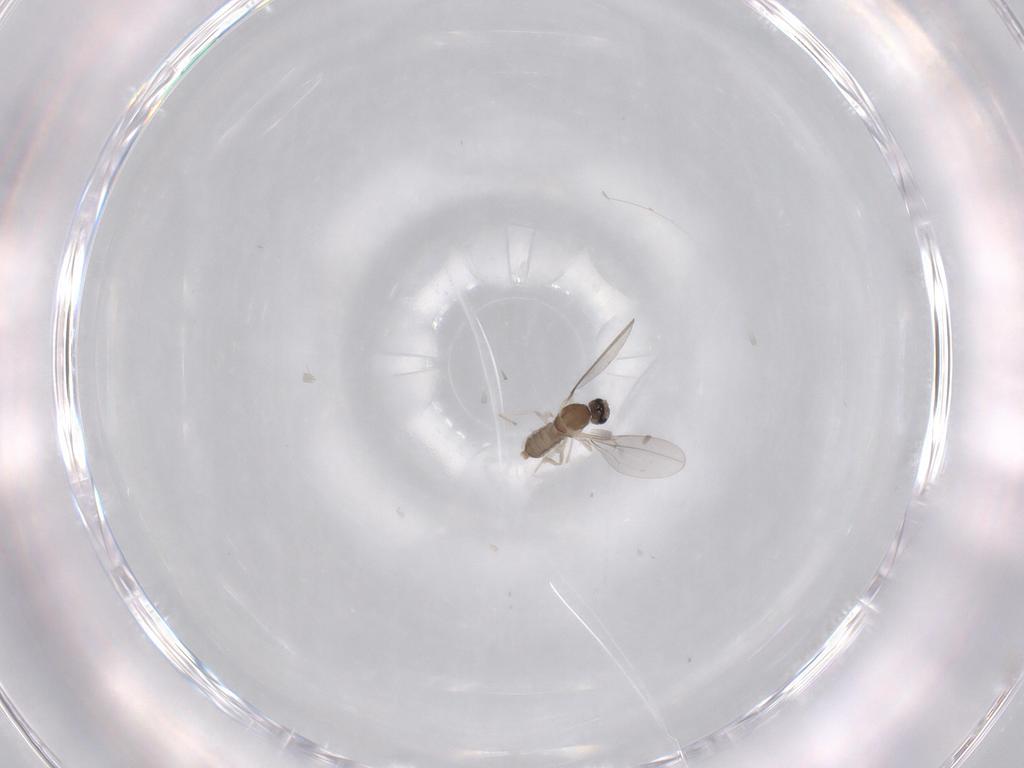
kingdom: Animalia
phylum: Arthropoda
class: Insecta
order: Diptera
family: Cecidomyiidae
